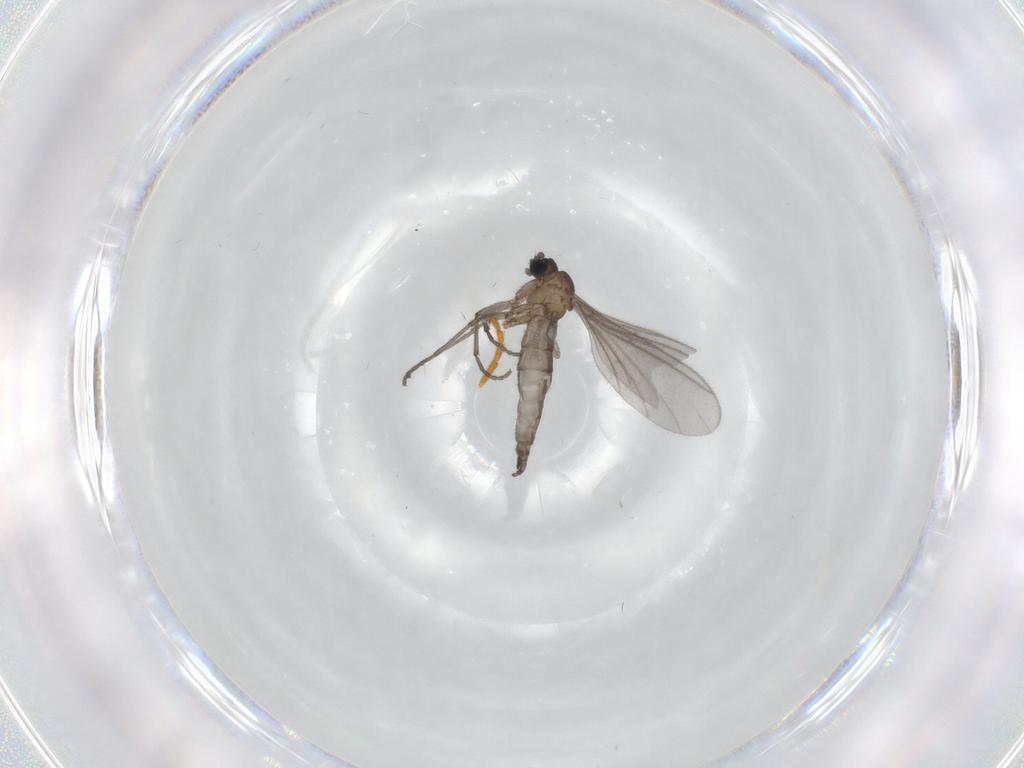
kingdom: Animalia
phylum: Arthropoda
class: Insecta
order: Diptera
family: Sciaridae
